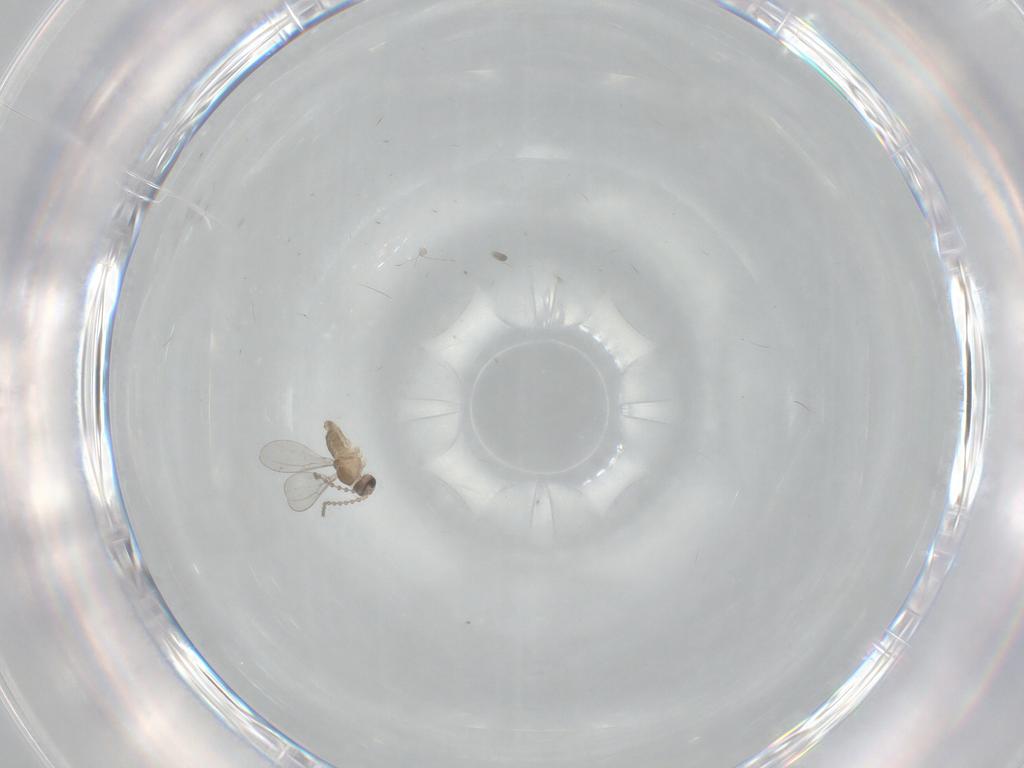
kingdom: Animalia
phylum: Arthropoda
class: Insecta
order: Diptera
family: Cecidomyiidae
